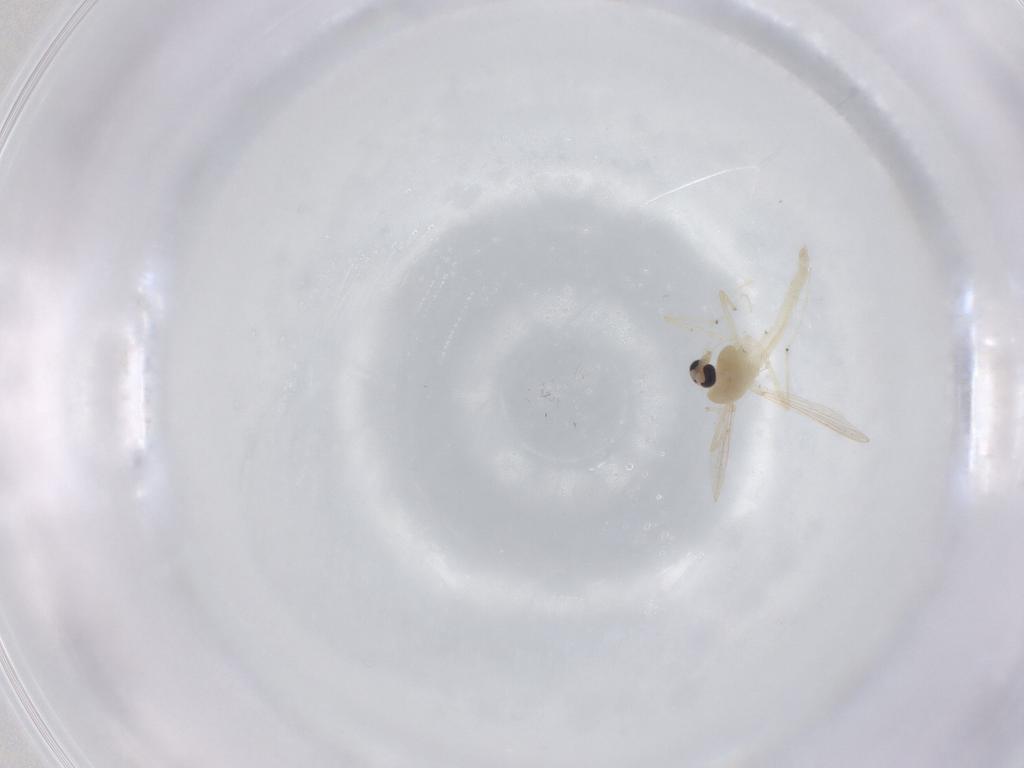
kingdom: Animalia
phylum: Arthropoda
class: Insecta
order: Diptera
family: Chironomidae
